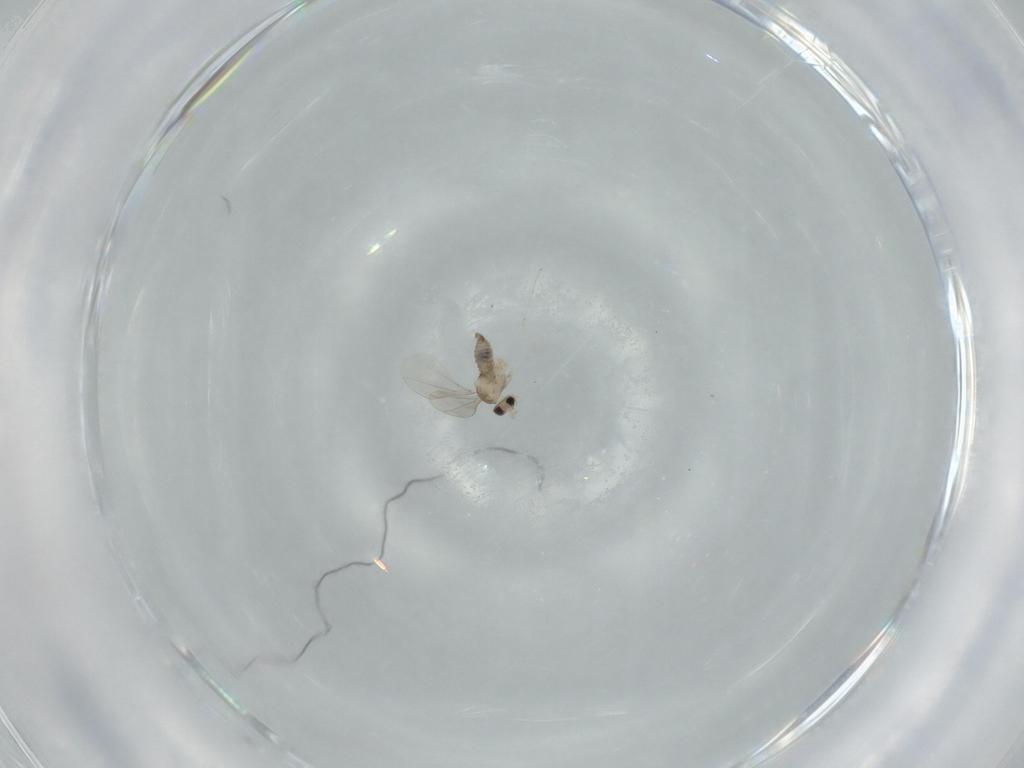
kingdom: Animalia
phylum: Arthropoda
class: Insecta
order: Diptera
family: Cecidomyiidae
